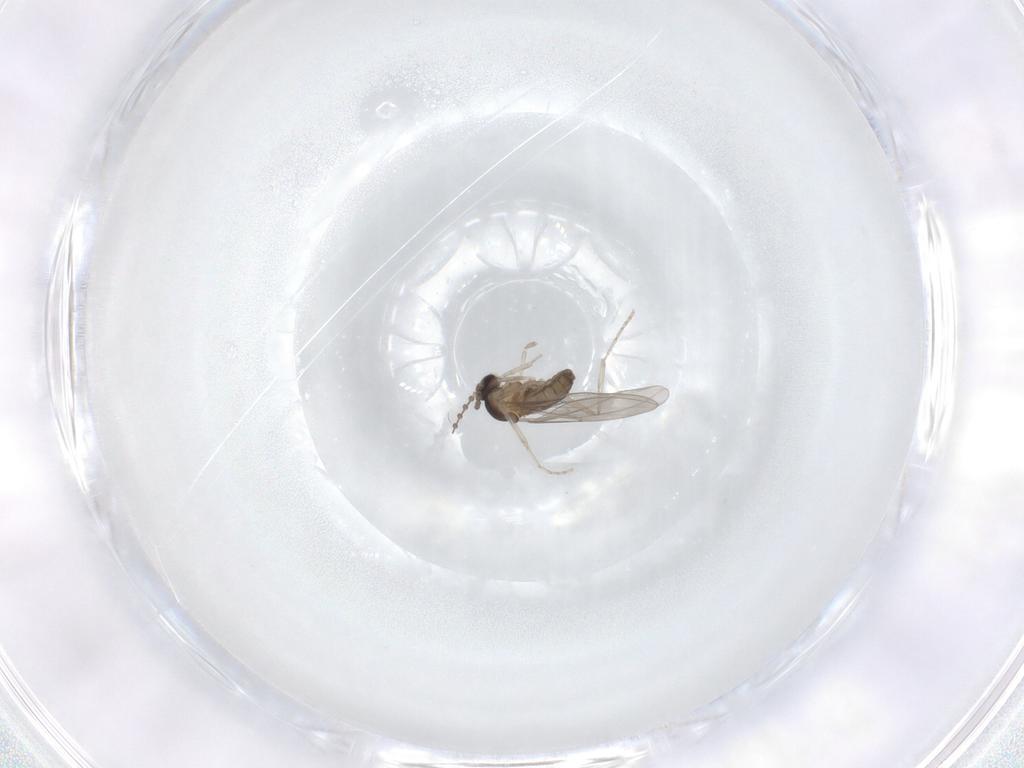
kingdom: Animalia
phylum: Arthropoda
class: Insecta
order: Diptera
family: Cecidomyiidae
